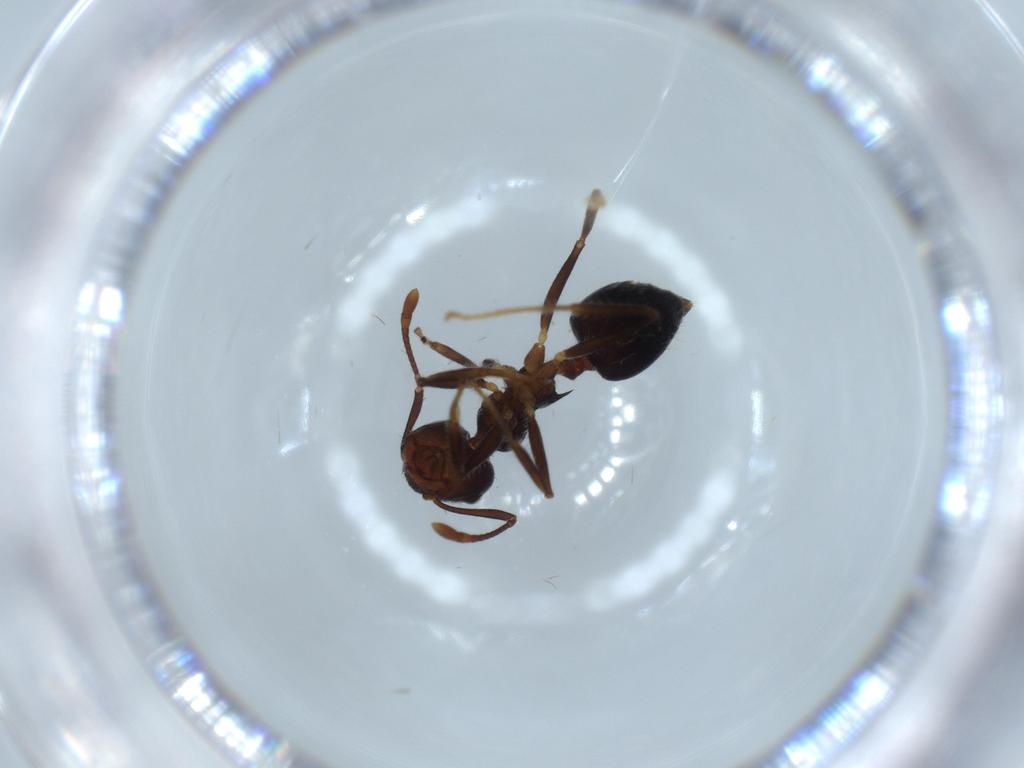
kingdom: Animalia
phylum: Arthropoda
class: Insecta
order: Hymenoptera
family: Formicidae
